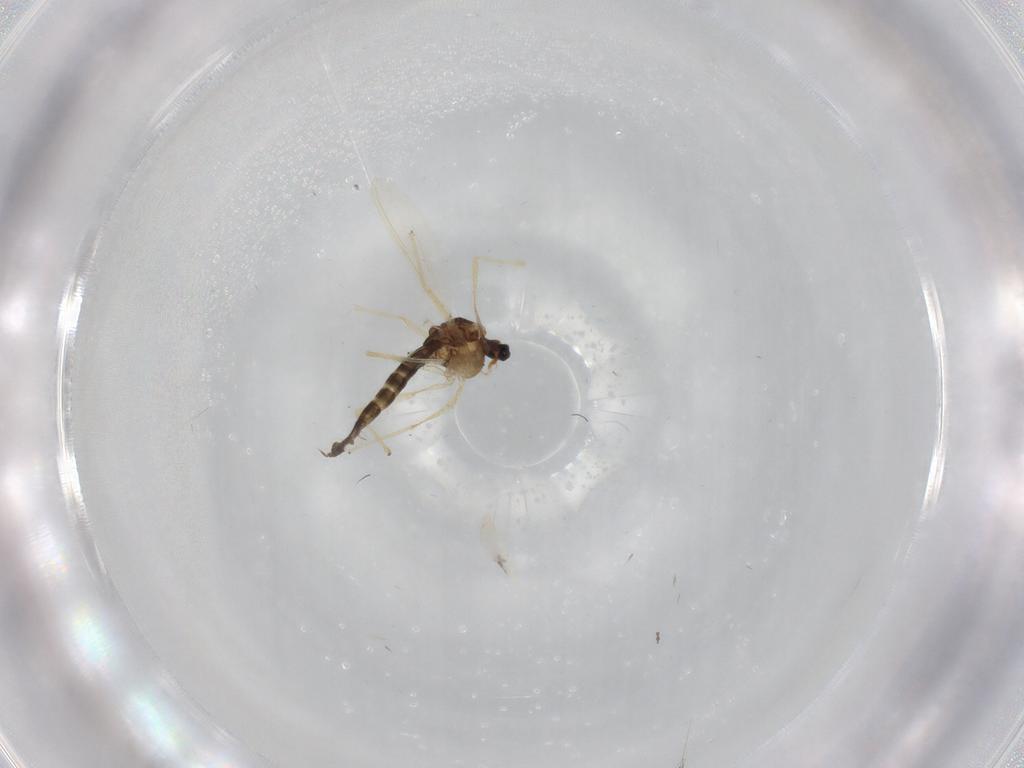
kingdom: Animalia
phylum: Arthropoda
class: Insecta
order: Diptera
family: Chironomidae
